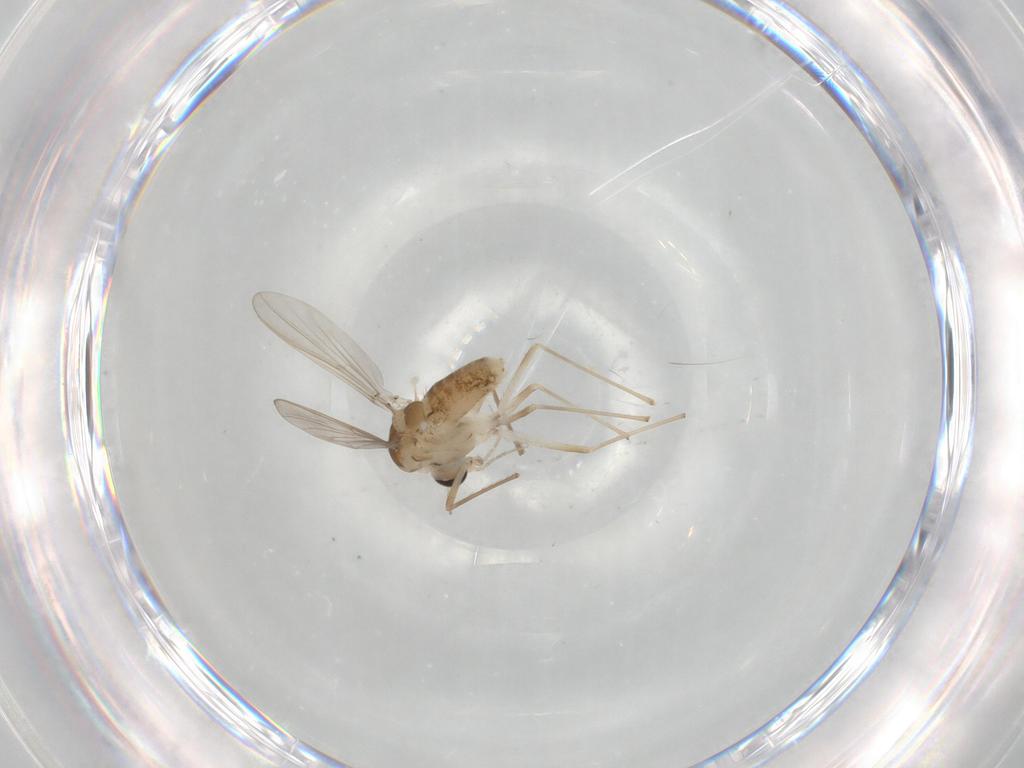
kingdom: Animalia
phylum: Arthropoda
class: Insecta
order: Diptera
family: Chironomidae
